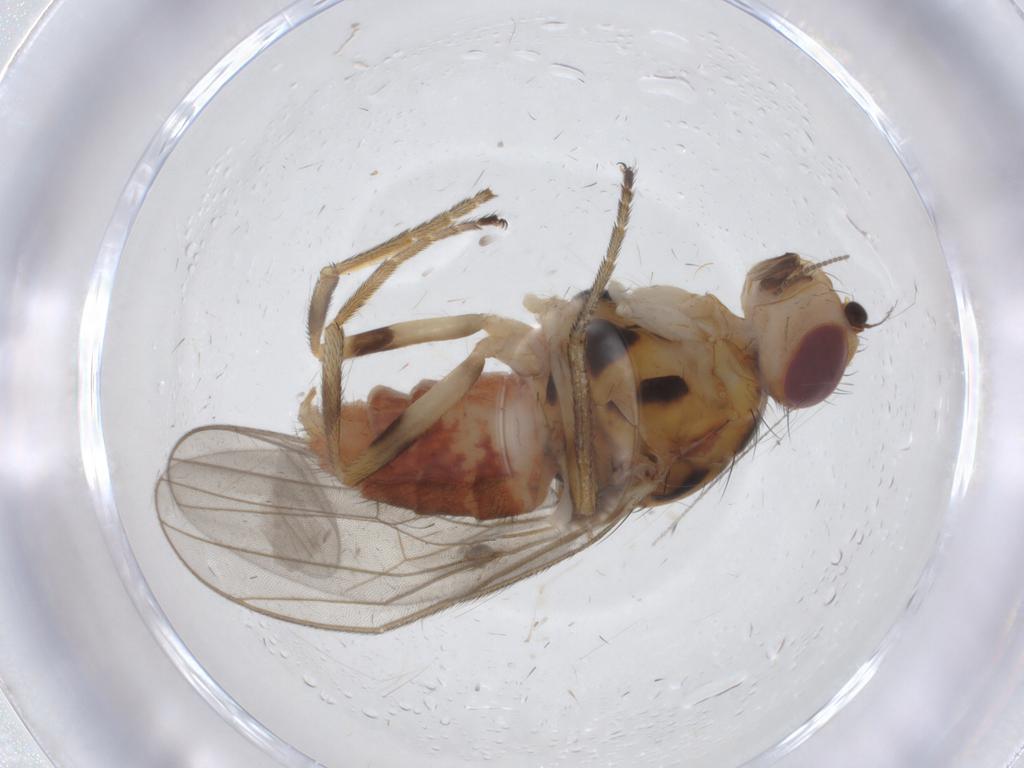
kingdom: Animalia
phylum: Arthropoda
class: Insecta
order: Diptera
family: Chloropidae
